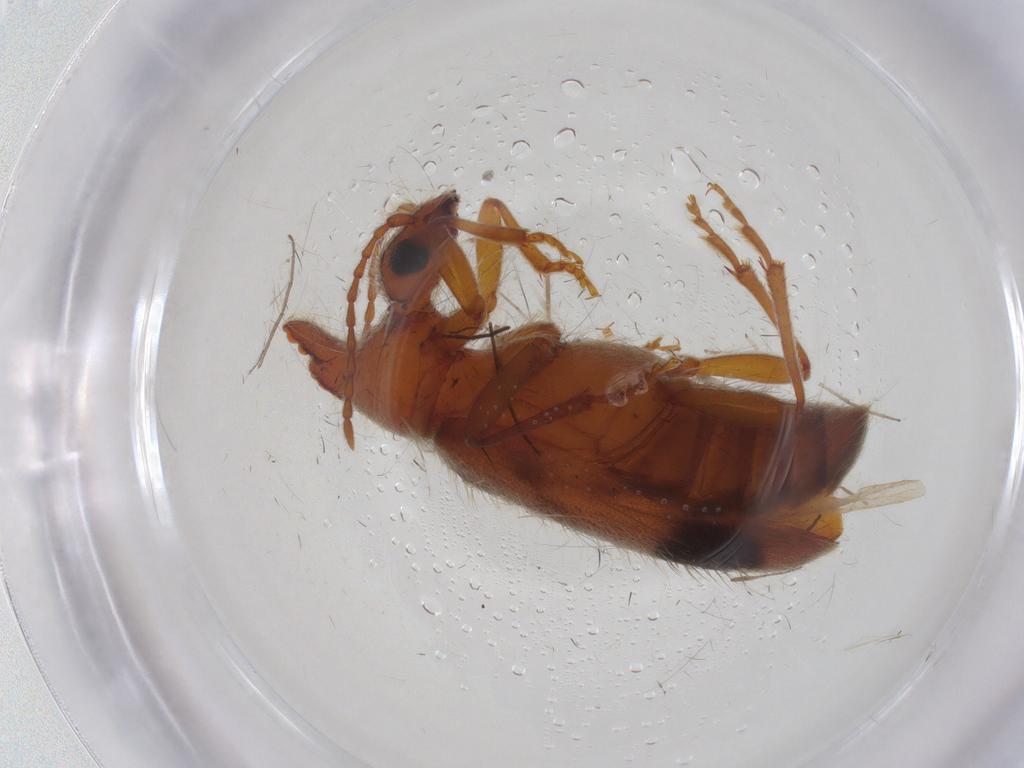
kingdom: Animalia
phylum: Arthropoda
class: Insecta
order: Coleoptera
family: Anthicidae
